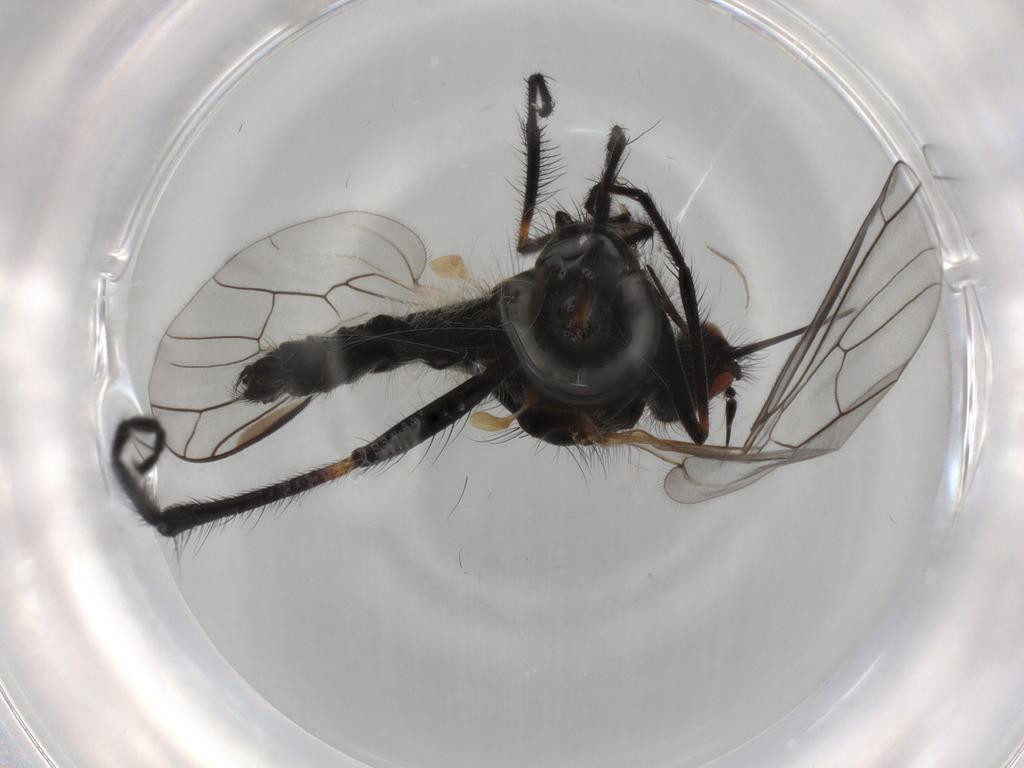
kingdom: Animalia
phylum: Arthropoda
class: Insecta
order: Diptera
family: Empididae
